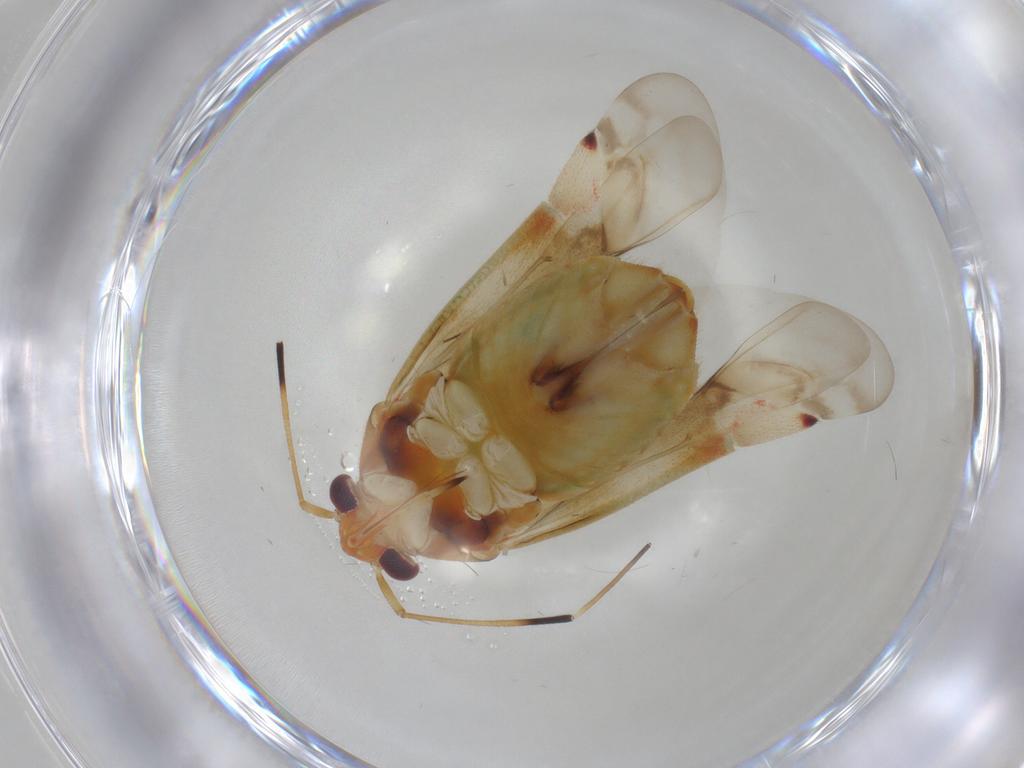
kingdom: Animalia
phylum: Arthropoda
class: Insecta
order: Hemiptera
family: Miridae
